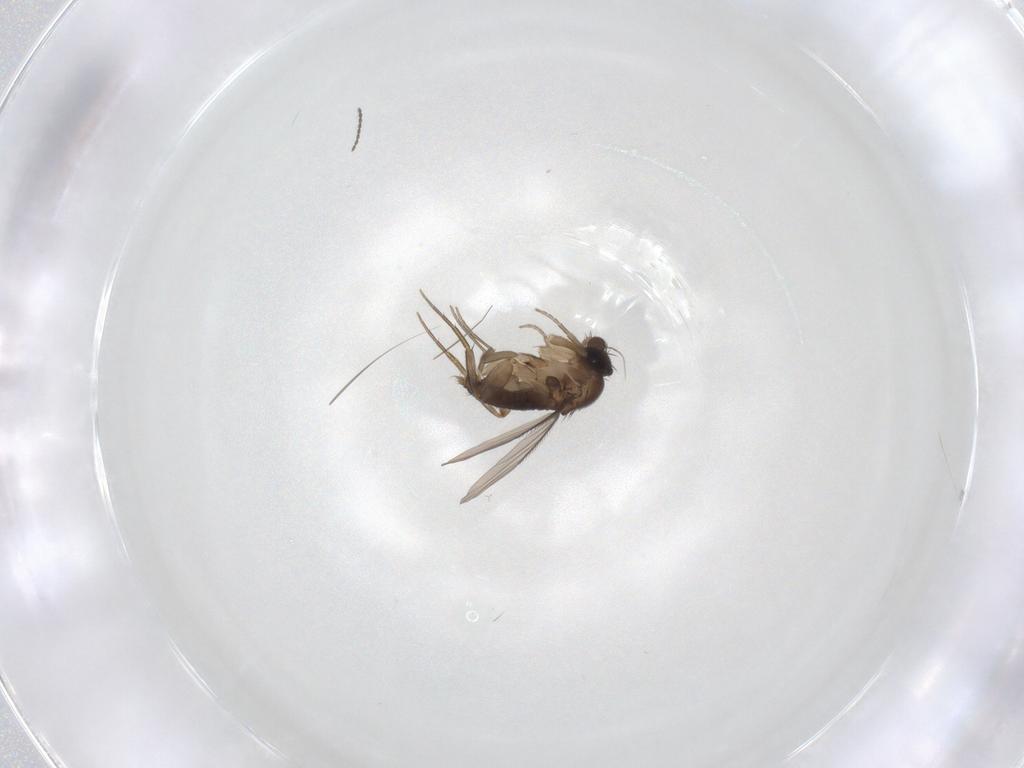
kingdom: Animalia
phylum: Arthropoda
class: Insecta
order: Diptera
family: Phoridae
